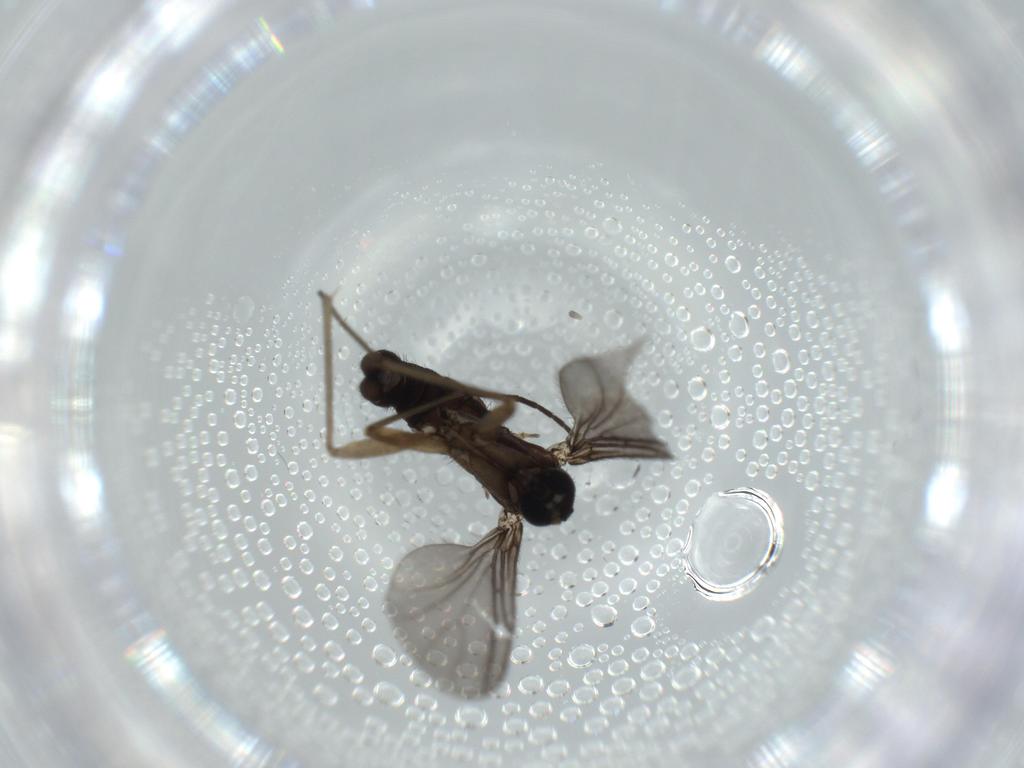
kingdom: Animalia
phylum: Arthropoda
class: Insecta
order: Diptera
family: Sciaridae
